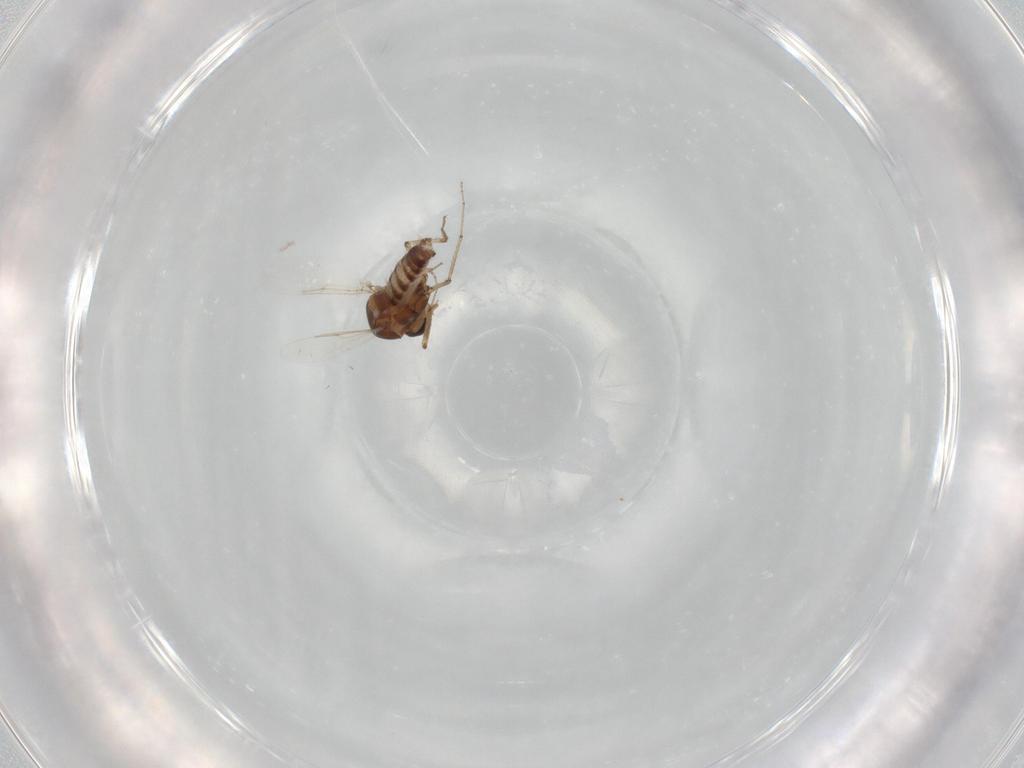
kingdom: Animalia
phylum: Arthropoda
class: Insecta
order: Diptera
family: Ceratopogonidae
